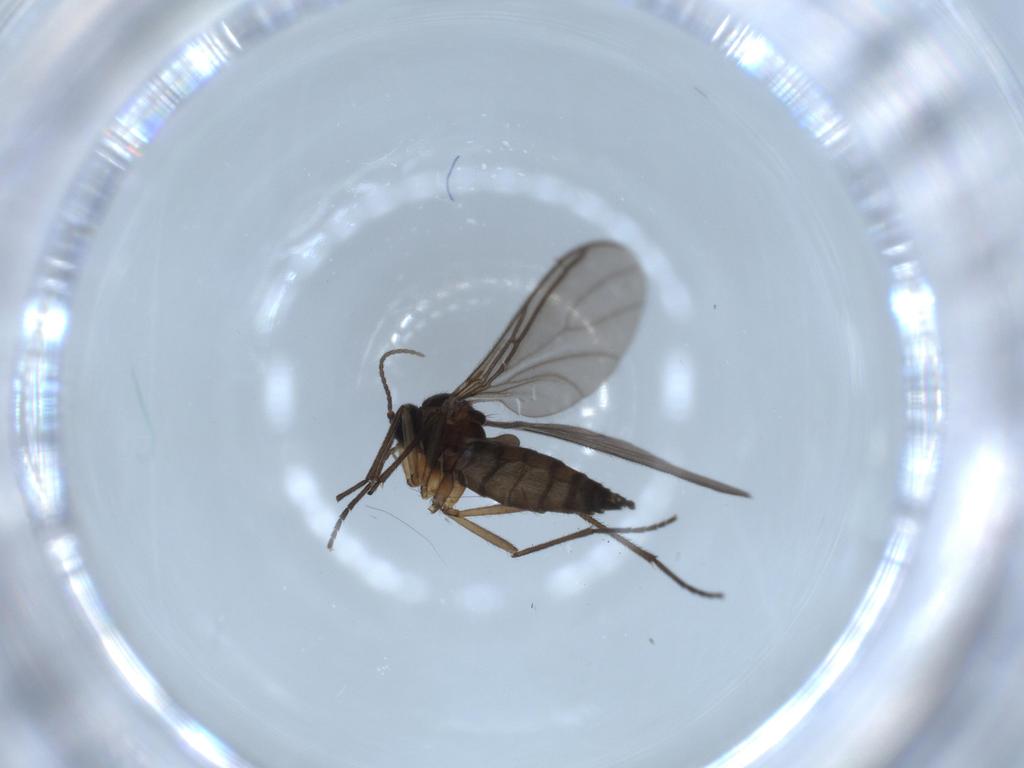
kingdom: Animalia
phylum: Arthropoda
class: Insecta
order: Diptera
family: Sciaridae
